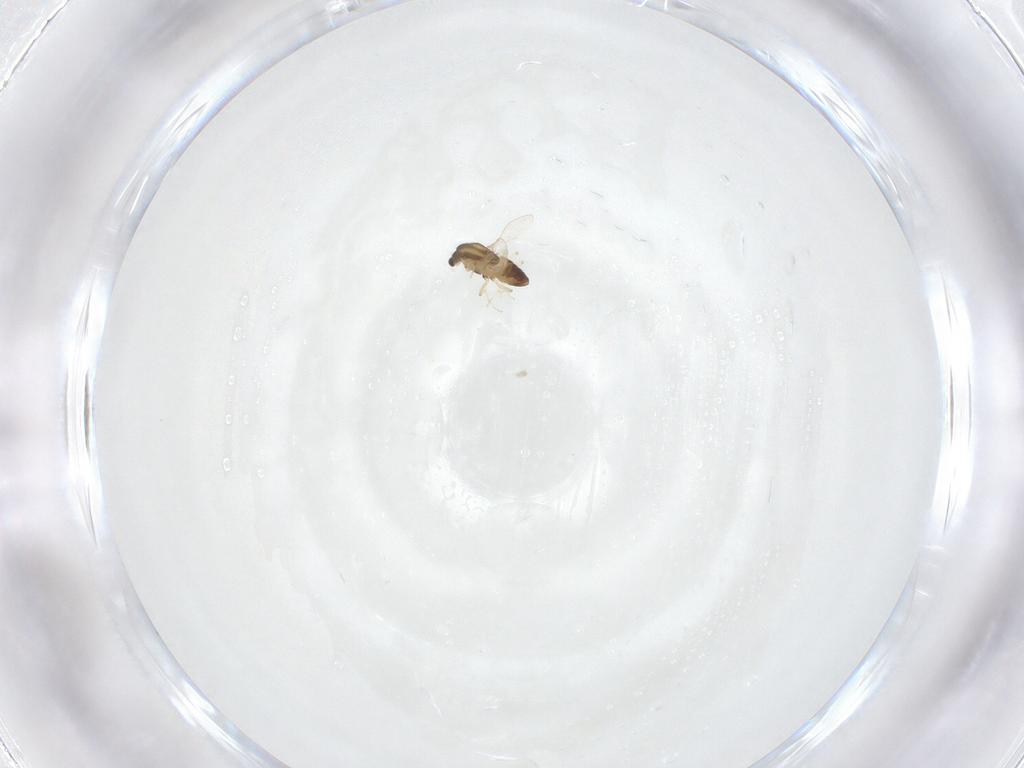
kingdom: Animalia
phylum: Arthropoda
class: Insecta
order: Diptera
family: Chironomidae
